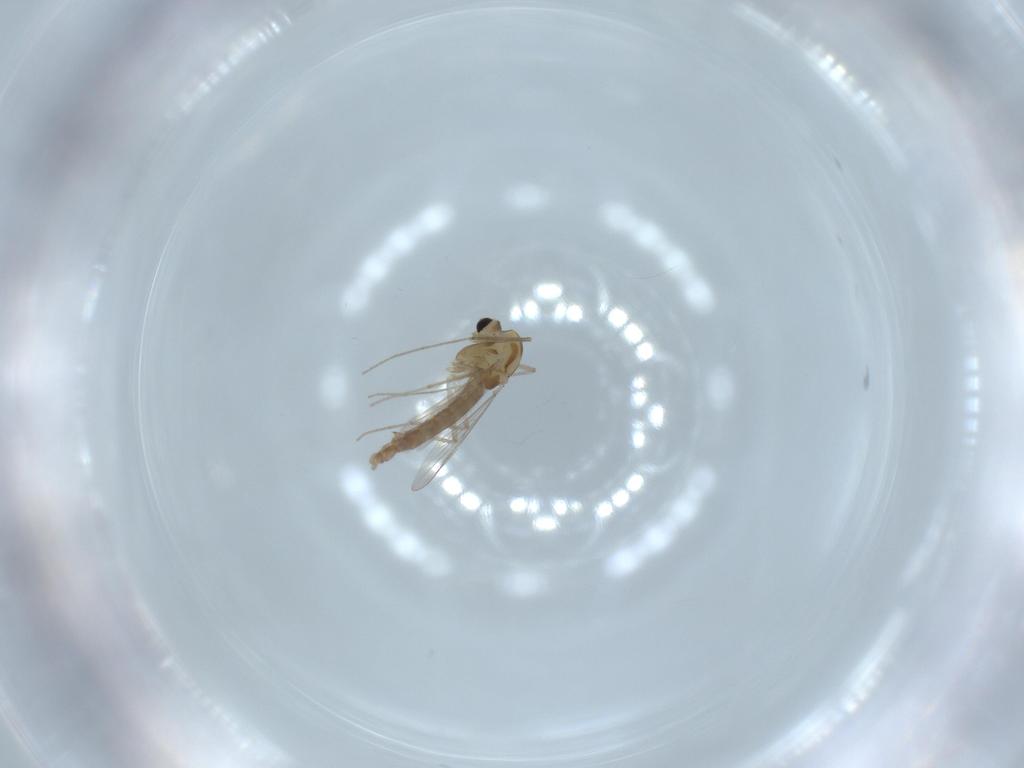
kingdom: Animalia
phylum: Arthropoda
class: Insecta
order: Diptera
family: Chironomidae
